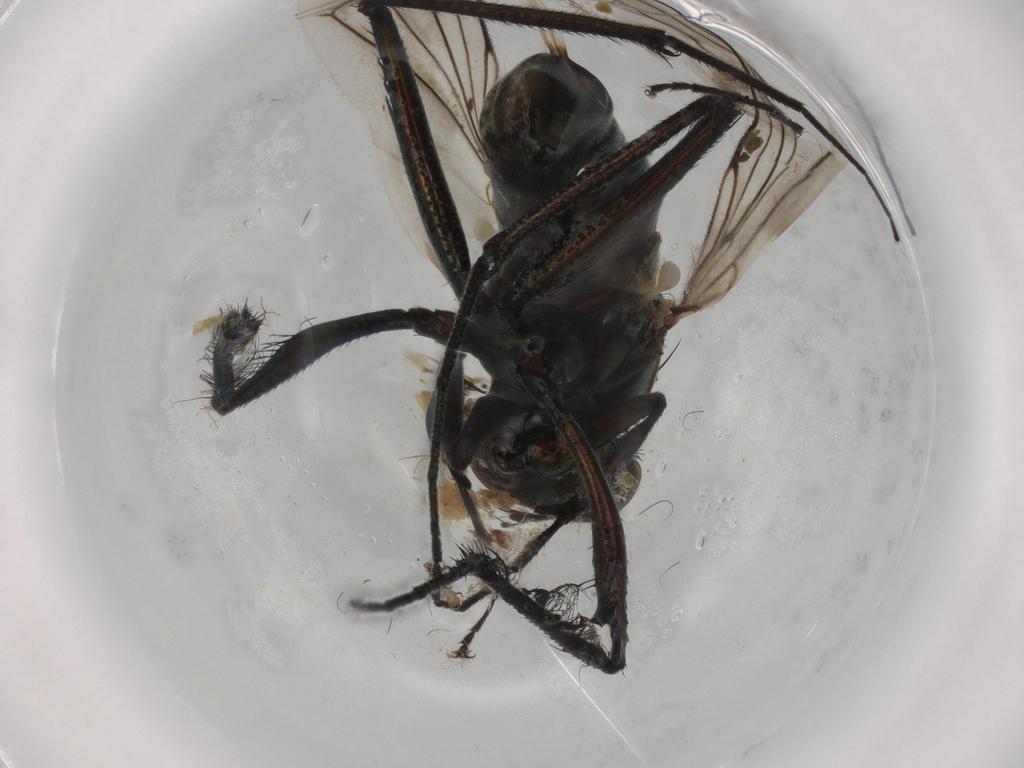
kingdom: Animalia
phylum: Arthropoda
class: Insecta
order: Diptera
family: Dolichopodidae
